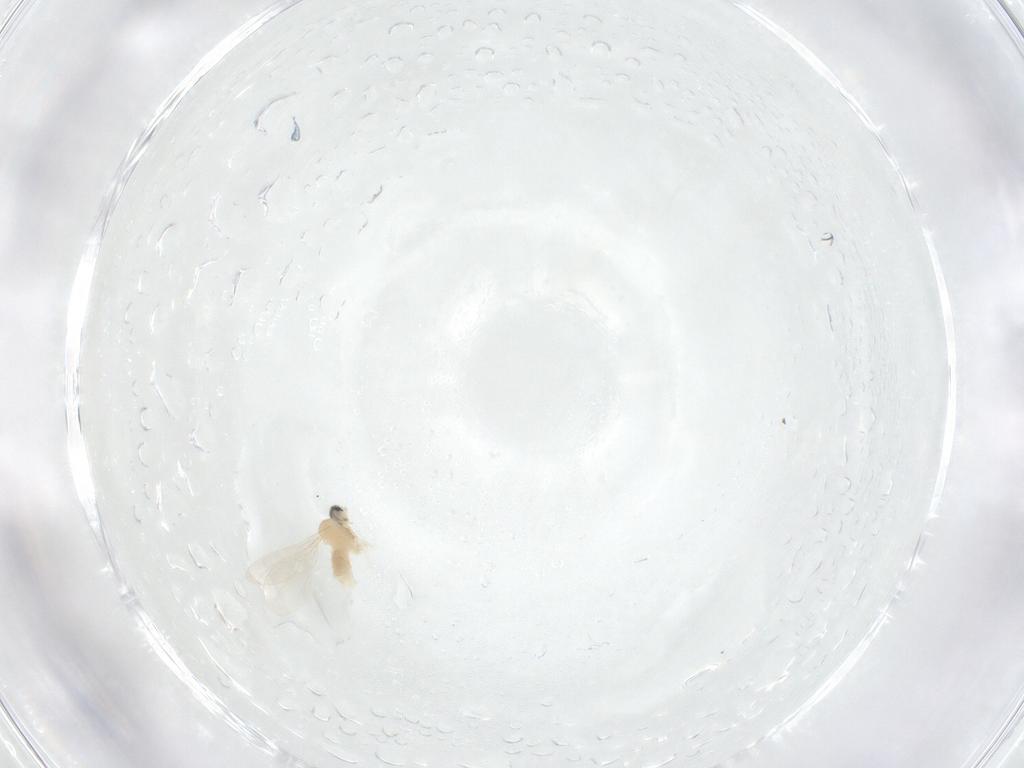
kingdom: Animalia
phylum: Arthropoda
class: Insecta
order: Diptera
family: Cecidomyiidae
